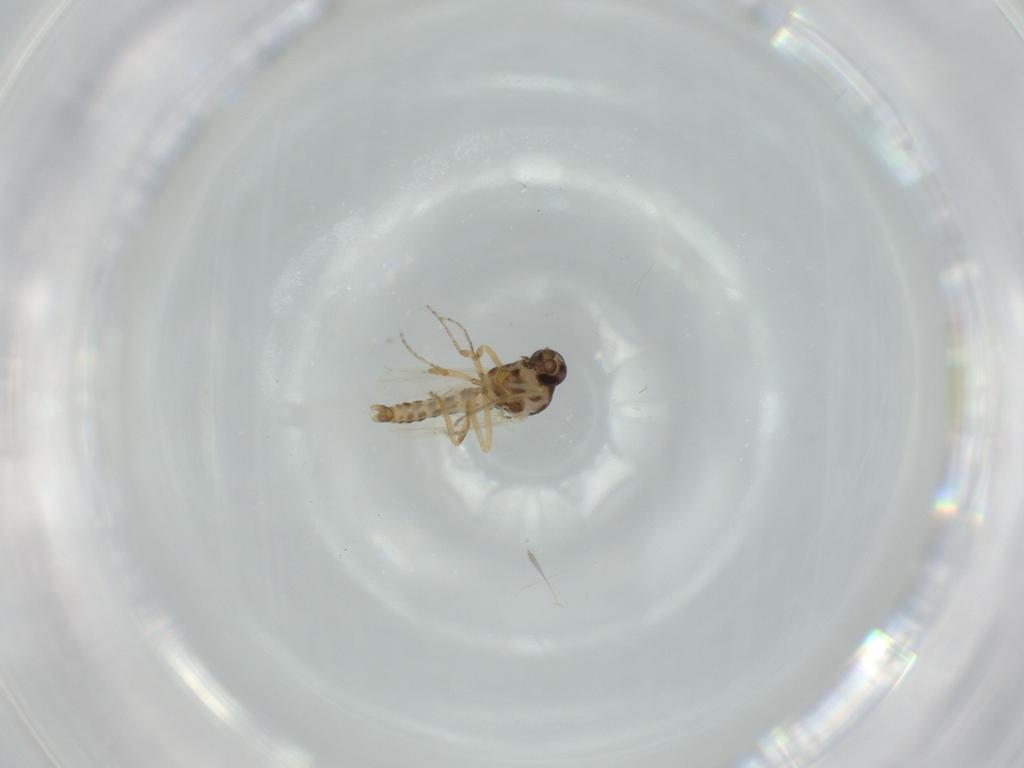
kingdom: Animalia
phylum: Arthropoda
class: Insecta
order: Diptera
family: Ceratopogonidae
